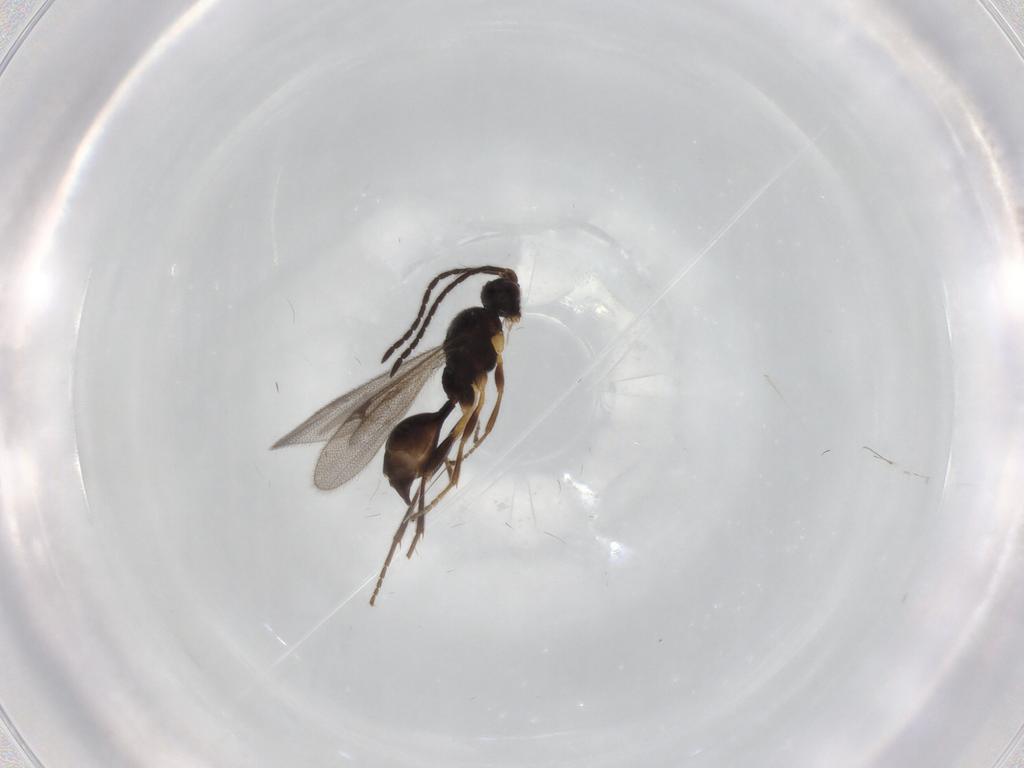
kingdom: Animalia
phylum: Arthropoda
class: Insecta
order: Hymenoptera
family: Proctotrupidae
